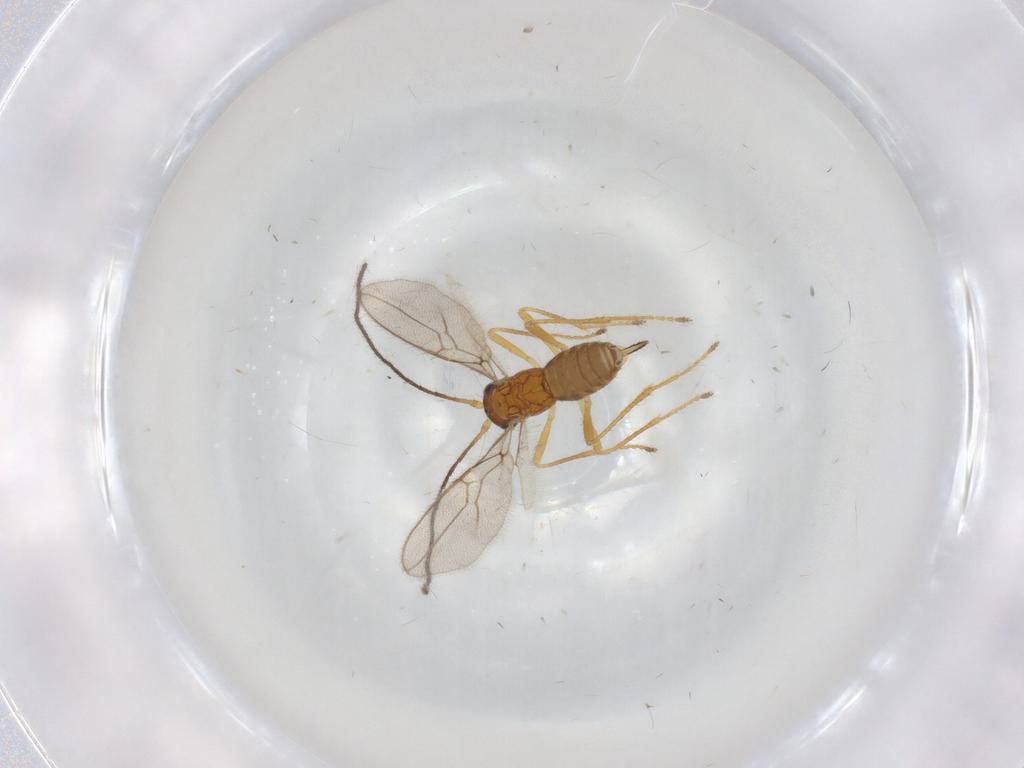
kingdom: Animalia
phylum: Arthropoda
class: Insecta
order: Hymenoptera
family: Braconidae
